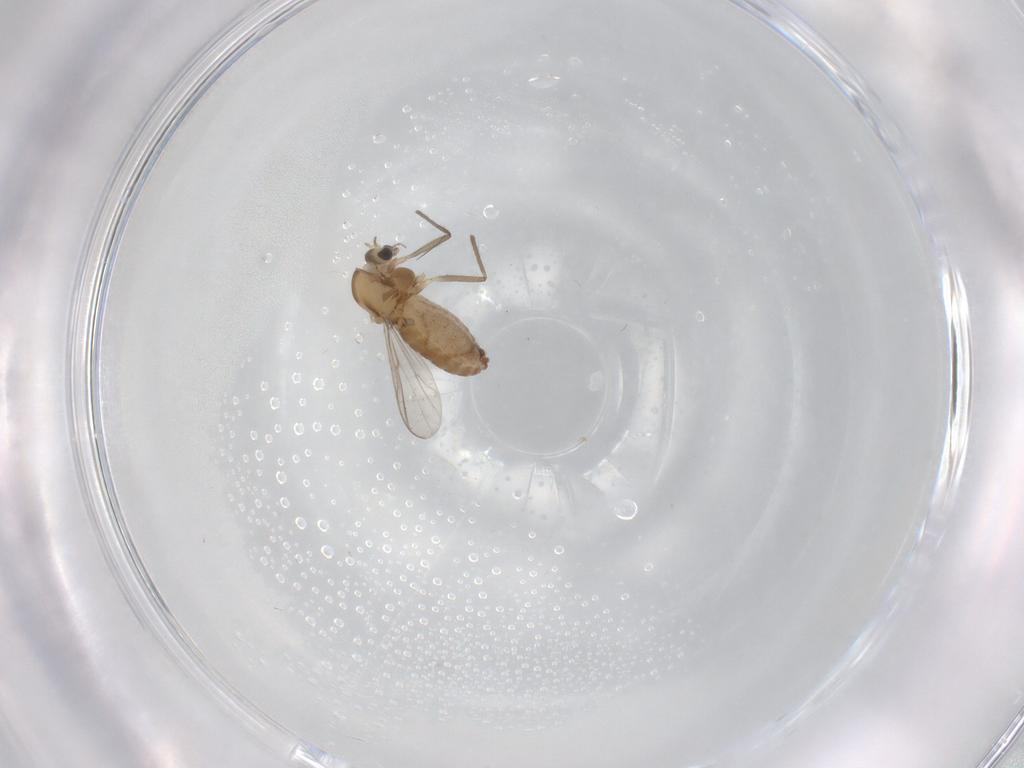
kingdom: Animalia
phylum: Arthropoda
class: Insecta
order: Diptera
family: Chironomidae
